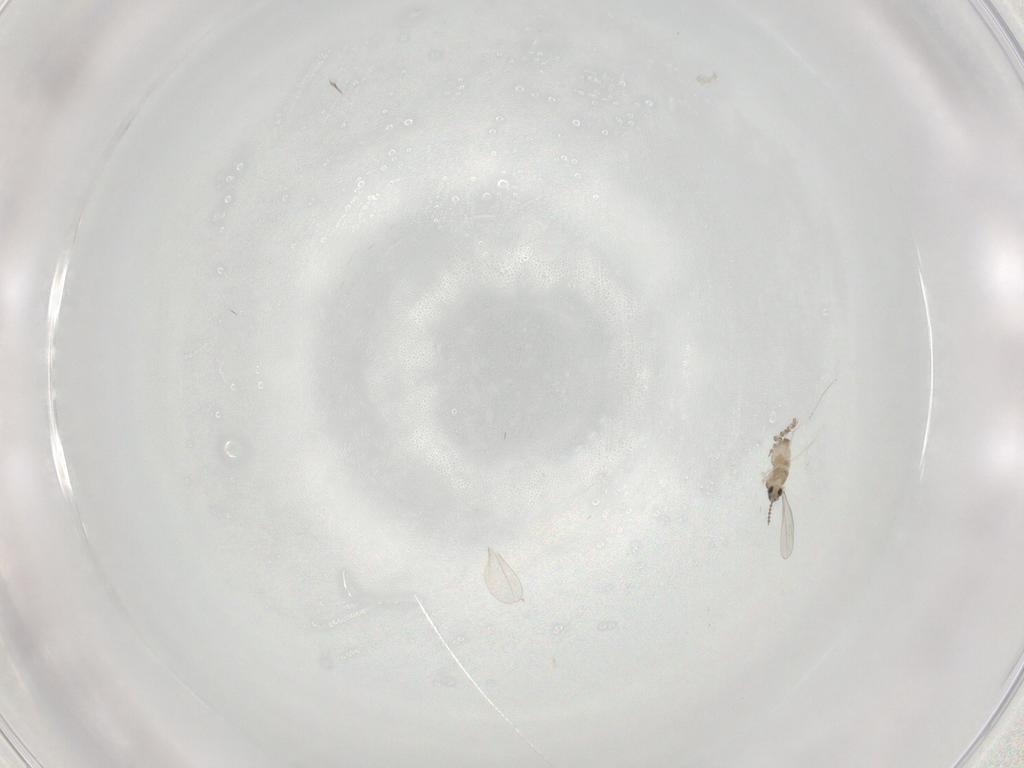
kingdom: Animalia
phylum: Arthropoda
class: Insecta
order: Diptera
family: Psychodidae
